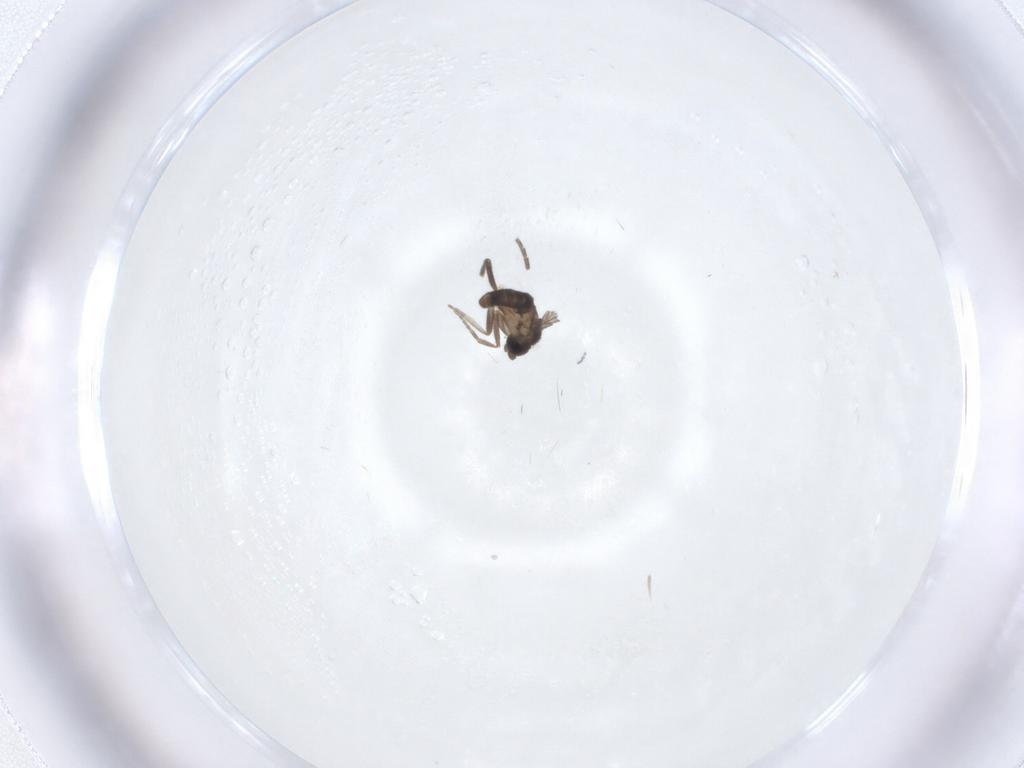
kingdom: Animalia
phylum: Arthropoda
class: Insecta
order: Diptera
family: Phoridae
